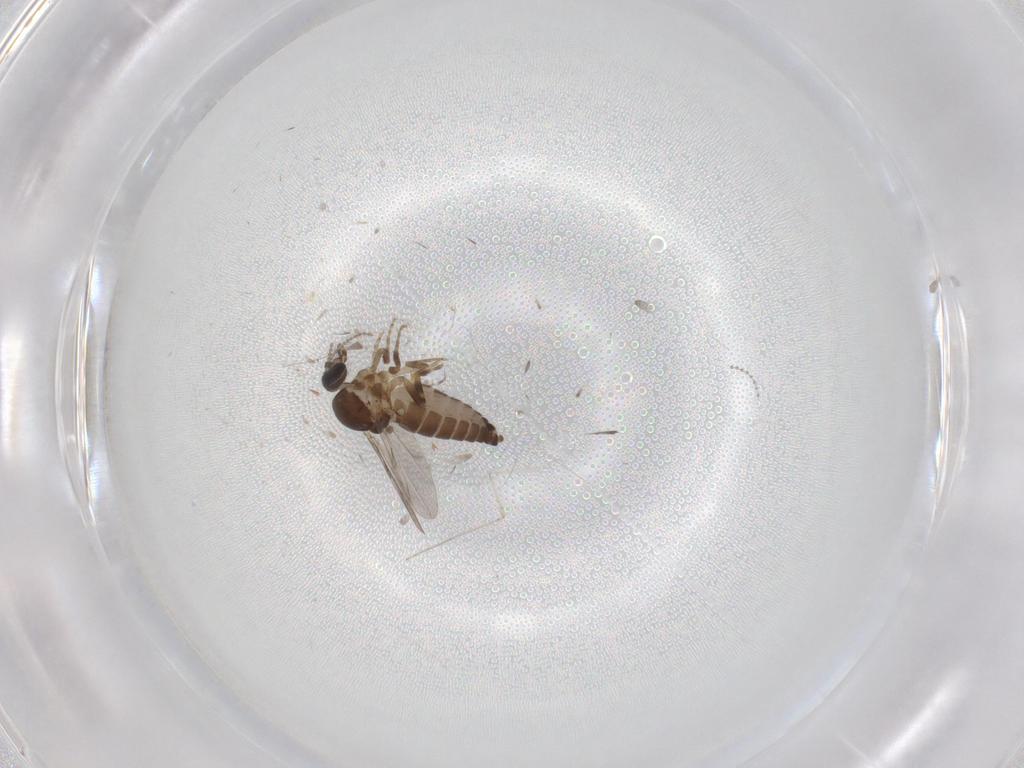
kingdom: Animalia
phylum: Arthropoda
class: Insecta
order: Diptera
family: Ceratopogonidae
